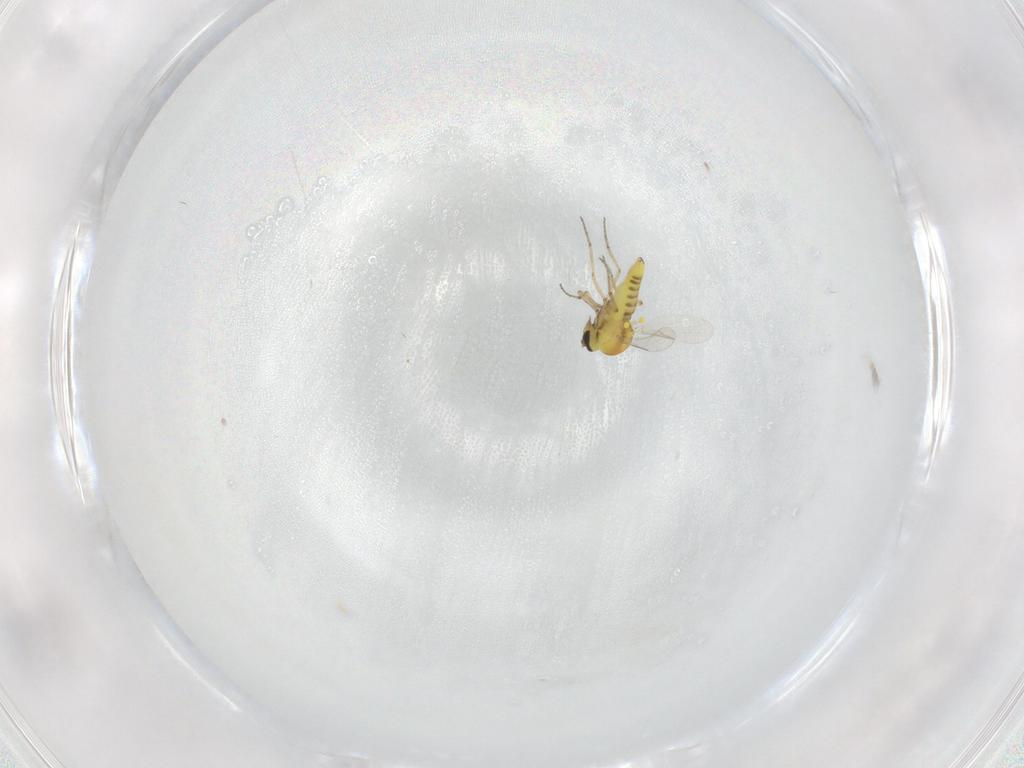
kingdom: Animalia
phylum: Arthropoda
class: Insecta
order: Diptera
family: Ceratopogonidae
